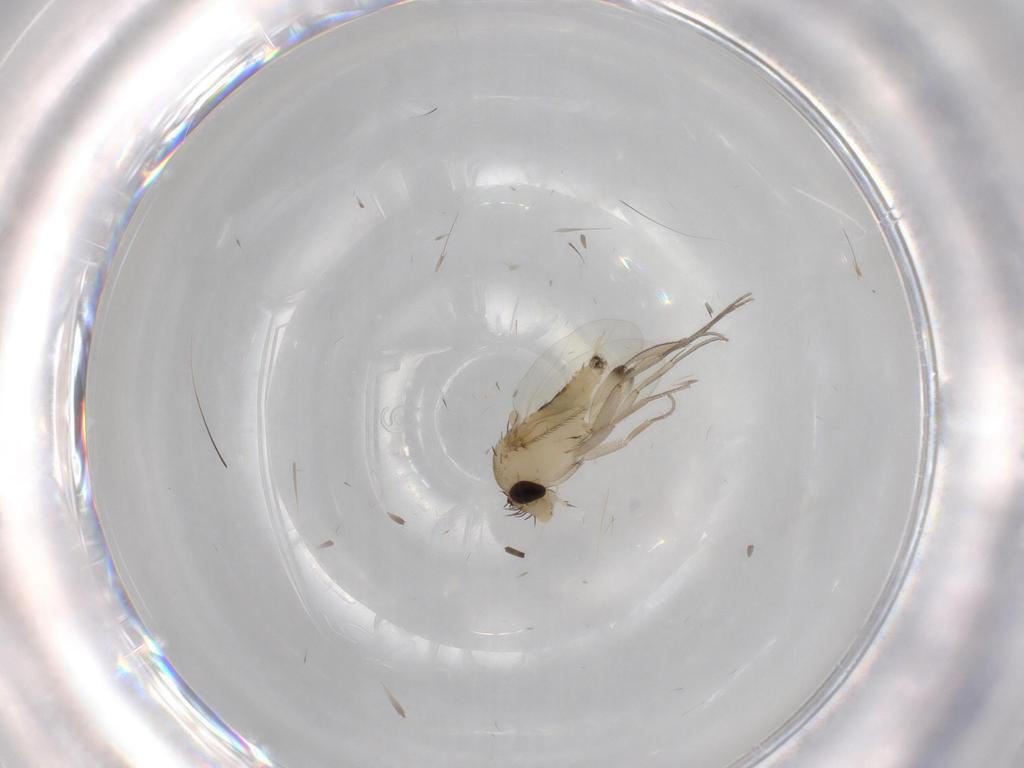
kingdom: Animalia
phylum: Arthropoda
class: Insecta
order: Diptera
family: Phoridae
